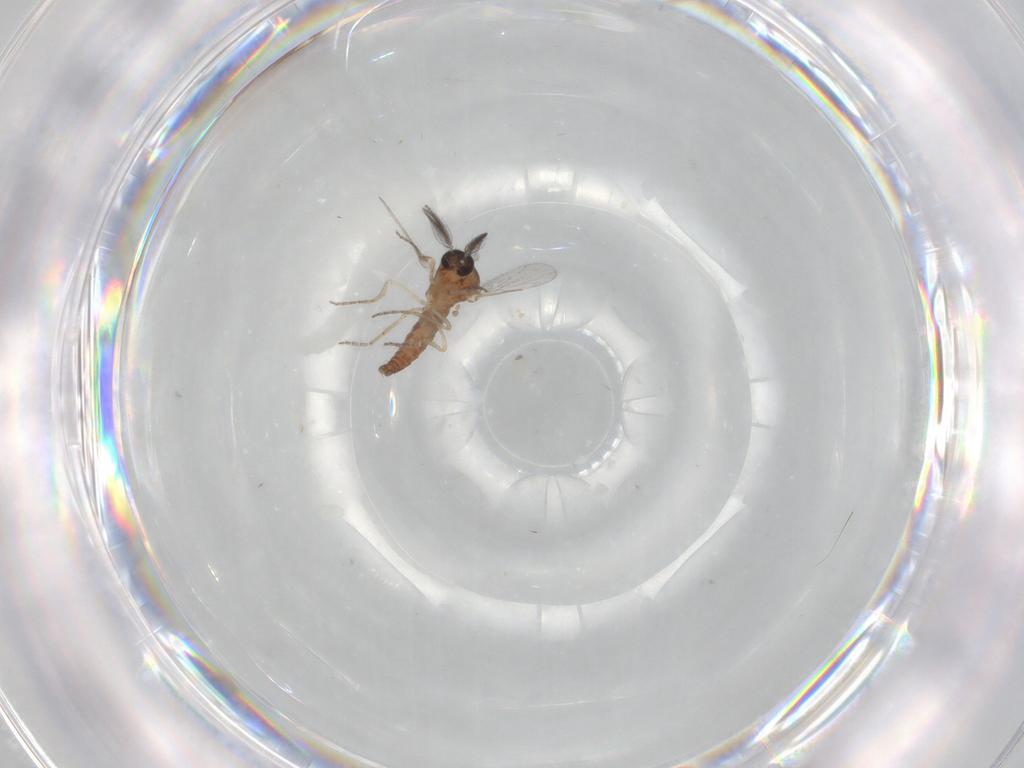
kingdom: Animalia
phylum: Arthropoda
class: Insecta
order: Diptera
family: Ceratopogonidae
